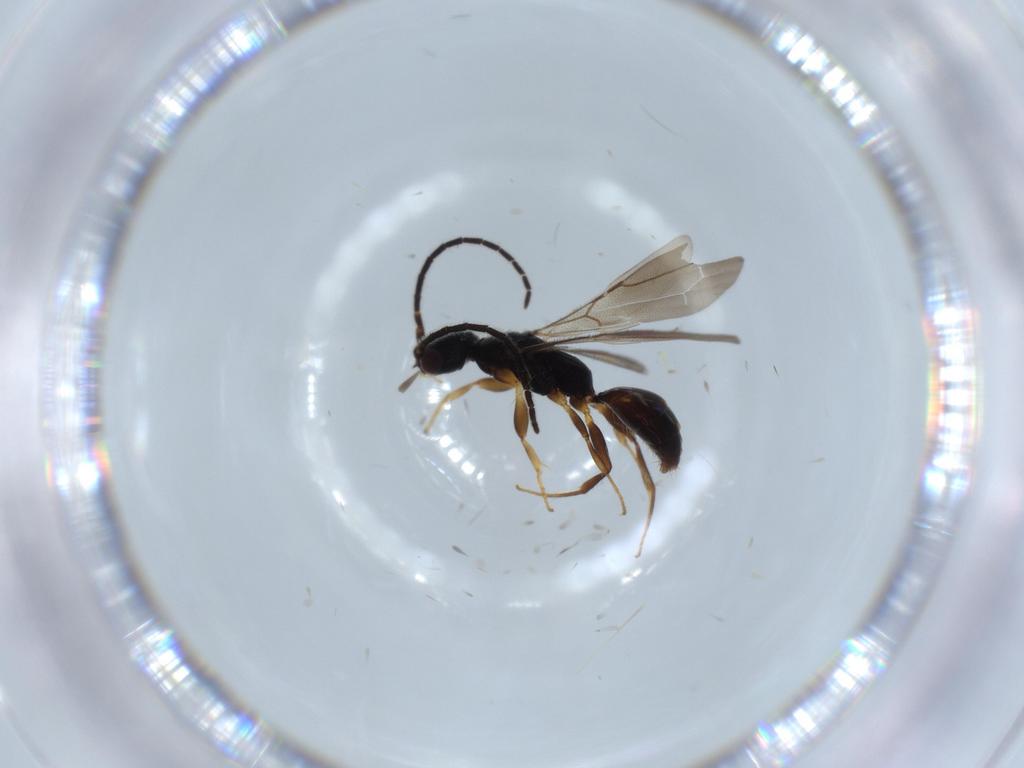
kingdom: Animalia
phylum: Arthropoda
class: Insecta
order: Hymenoptera
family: Bethylidae
